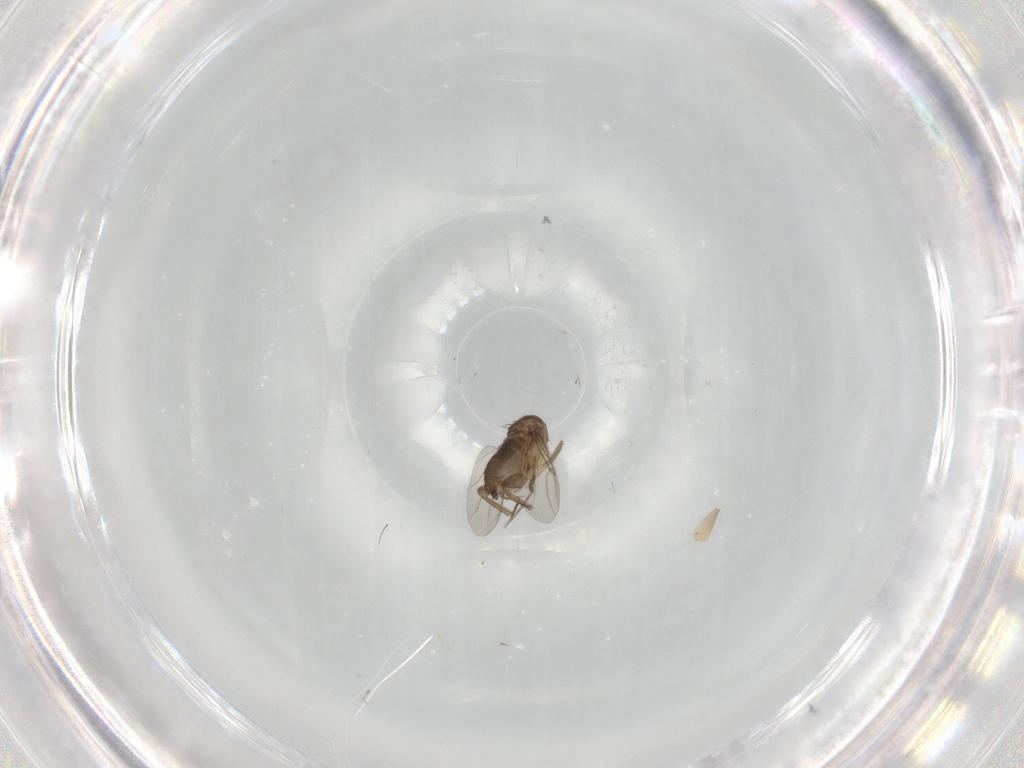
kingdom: Animalia
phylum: Arthropoda
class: Insecta
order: Diptera
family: Phoridae
